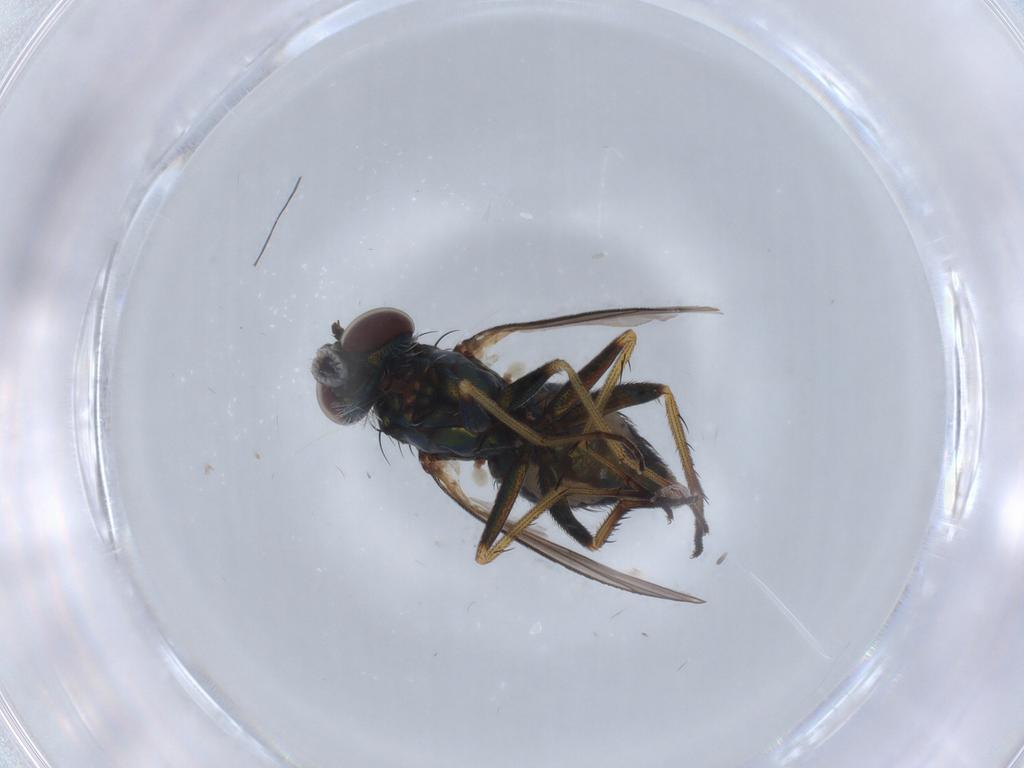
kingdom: Animalia
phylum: Arthropoda
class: Insecta
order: Diptera
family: Dolichopodidae
